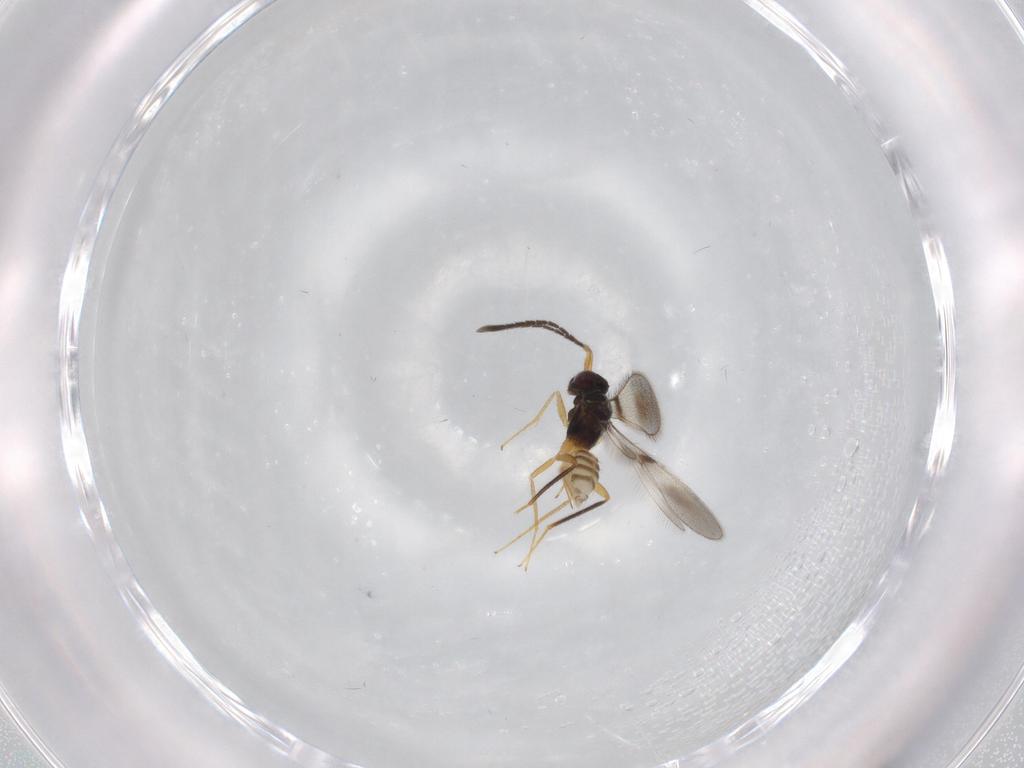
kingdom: Animalia
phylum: Arthropoda
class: Insecta
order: Hymenoptera
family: Mymaridae
